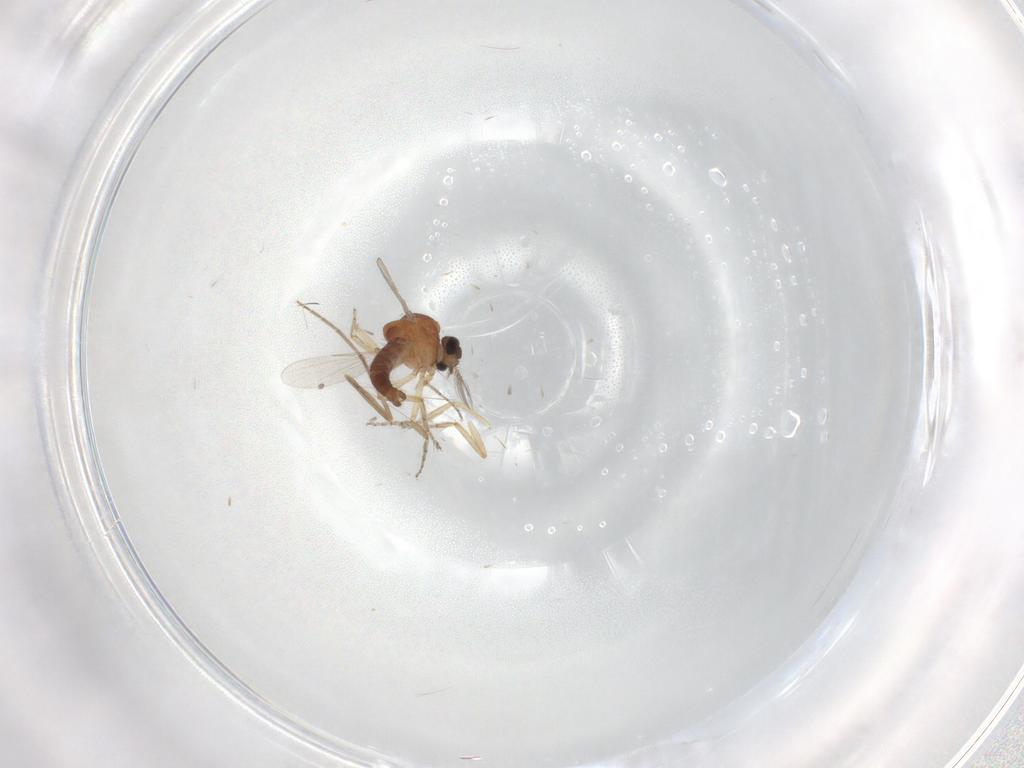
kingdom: Animalia
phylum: Arthropoda
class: Insecta
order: Diptera
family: Ceratopogonidae
